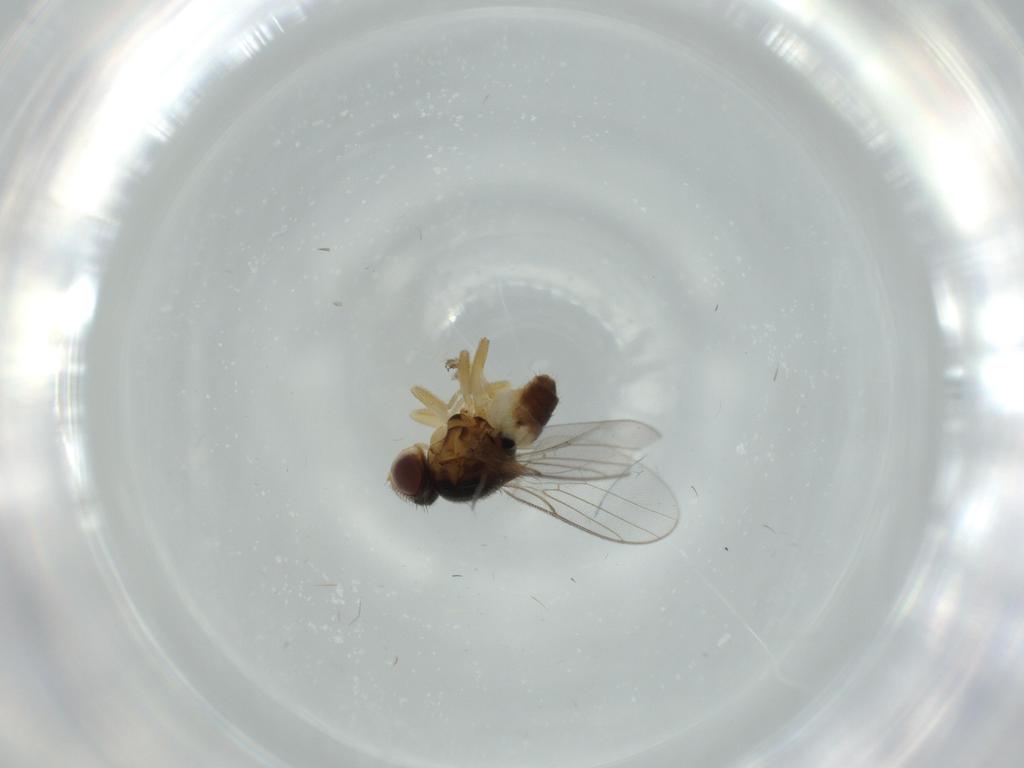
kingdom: Animalia
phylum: Arthropoda
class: Insecta
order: Diptera
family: Chloropidae
